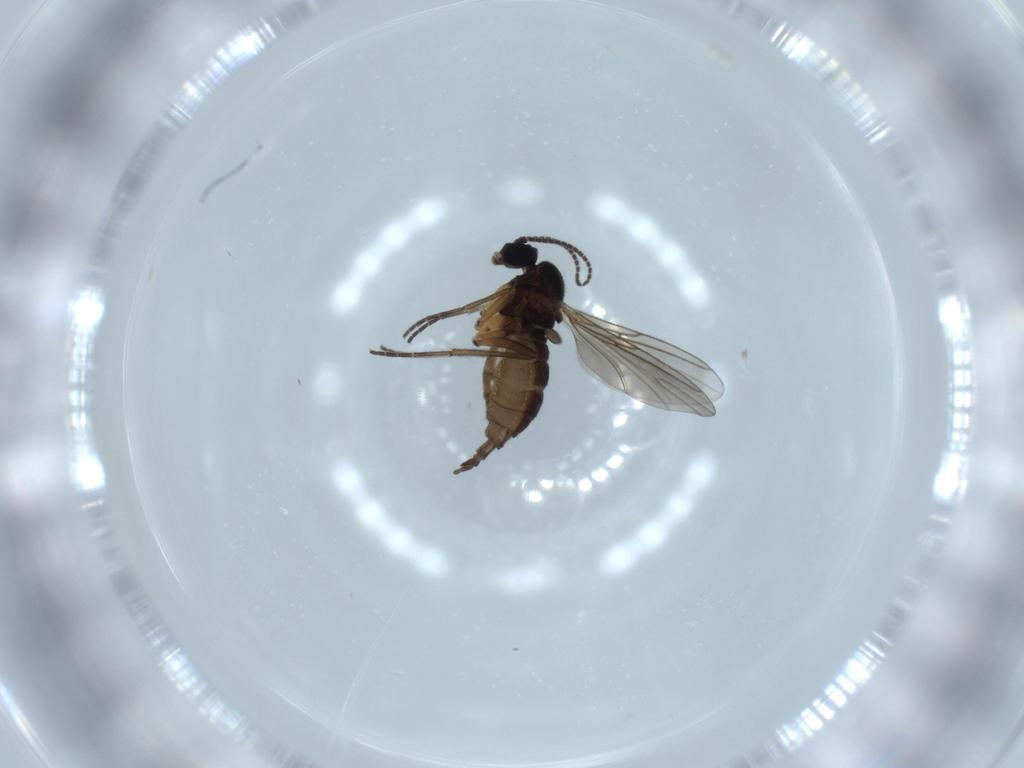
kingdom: Animalia
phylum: Arthropoda
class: Insecta
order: Diptera
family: Sciaridae
